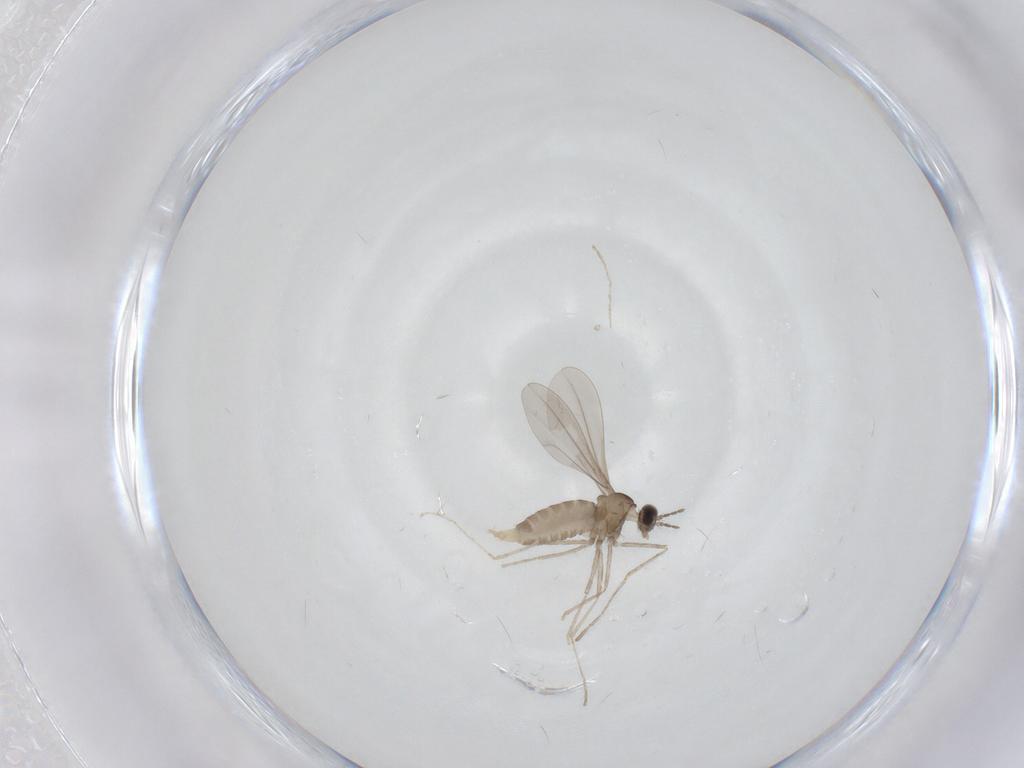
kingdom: Animalia
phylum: Arthropoda
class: Insecta
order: Diptera
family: Cecidomyiidae
